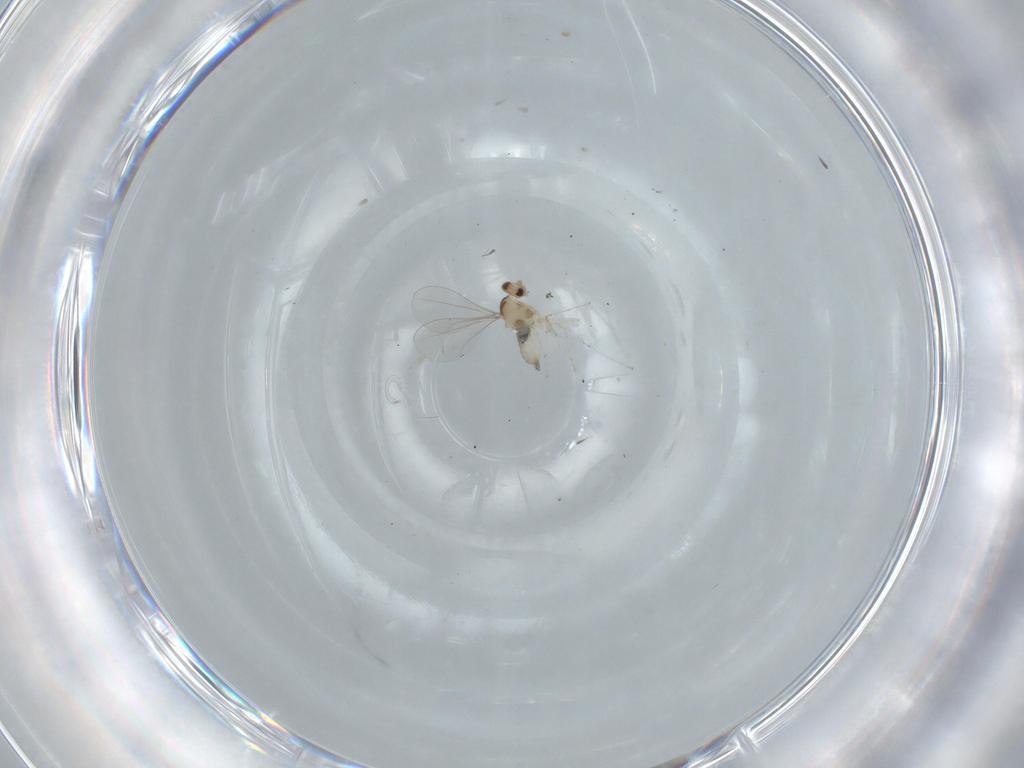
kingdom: Animalia
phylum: Arthropoda
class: Insecta
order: Diptera
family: Cecidomyiidae
